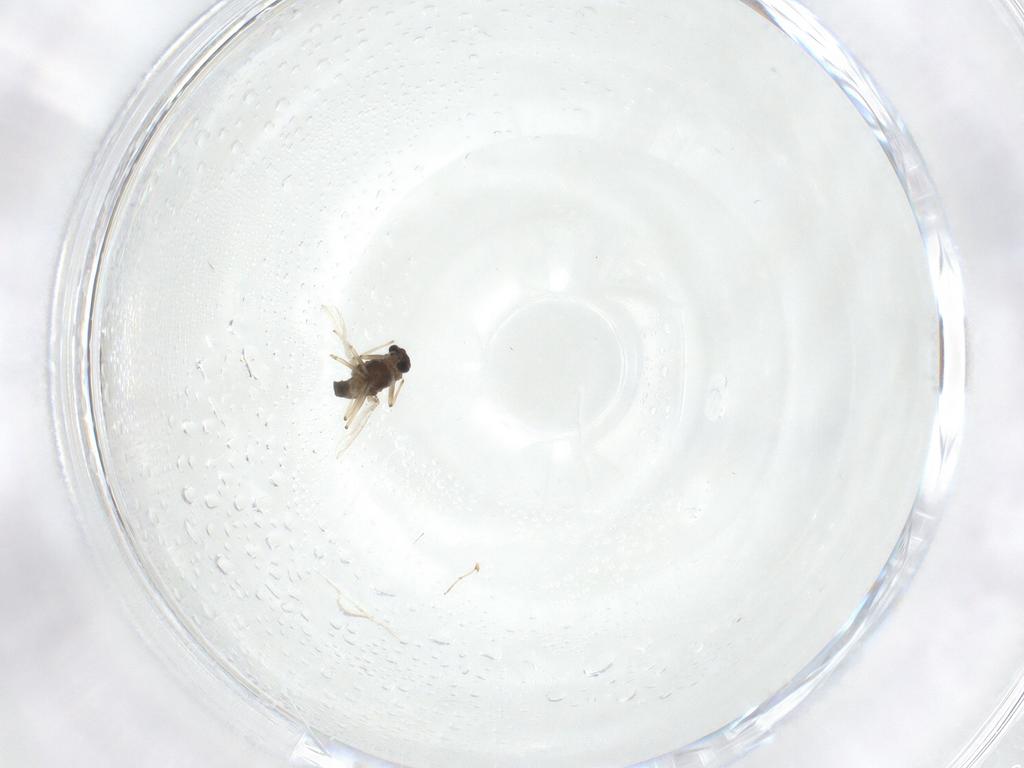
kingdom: Animalia
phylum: Arthropoda
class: Insecta
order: Diptera
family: Chironomidae
